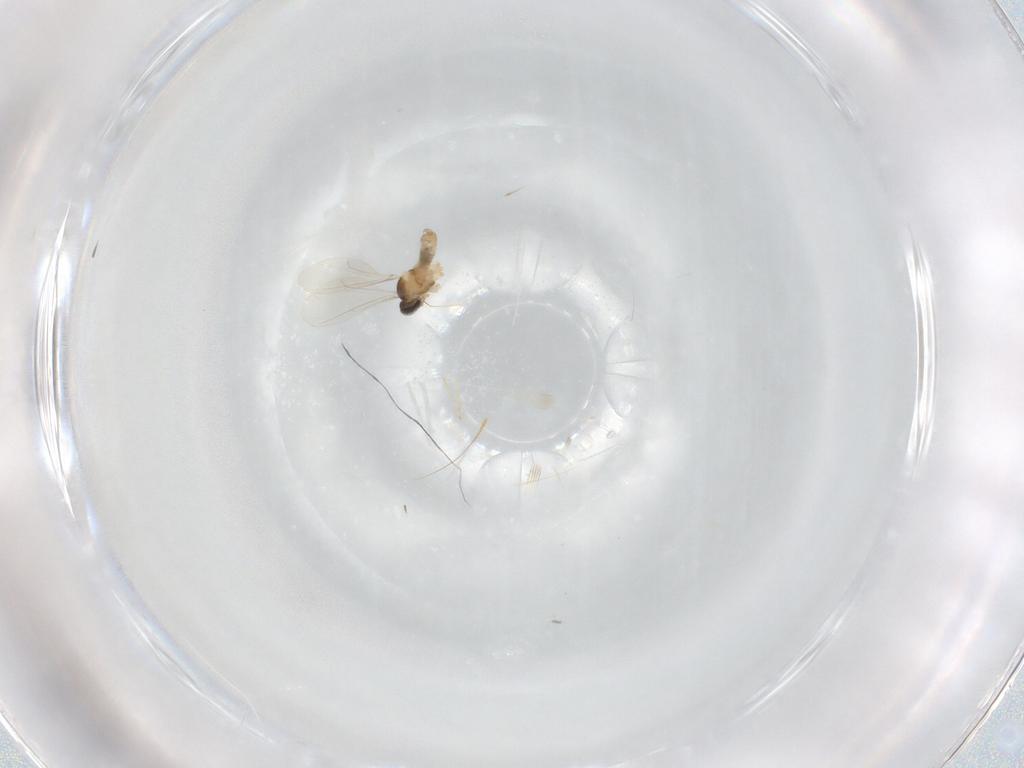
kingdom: Animalia
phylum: Arthropoda
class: Insecta
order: Diptera
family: Cecidomyiidae
